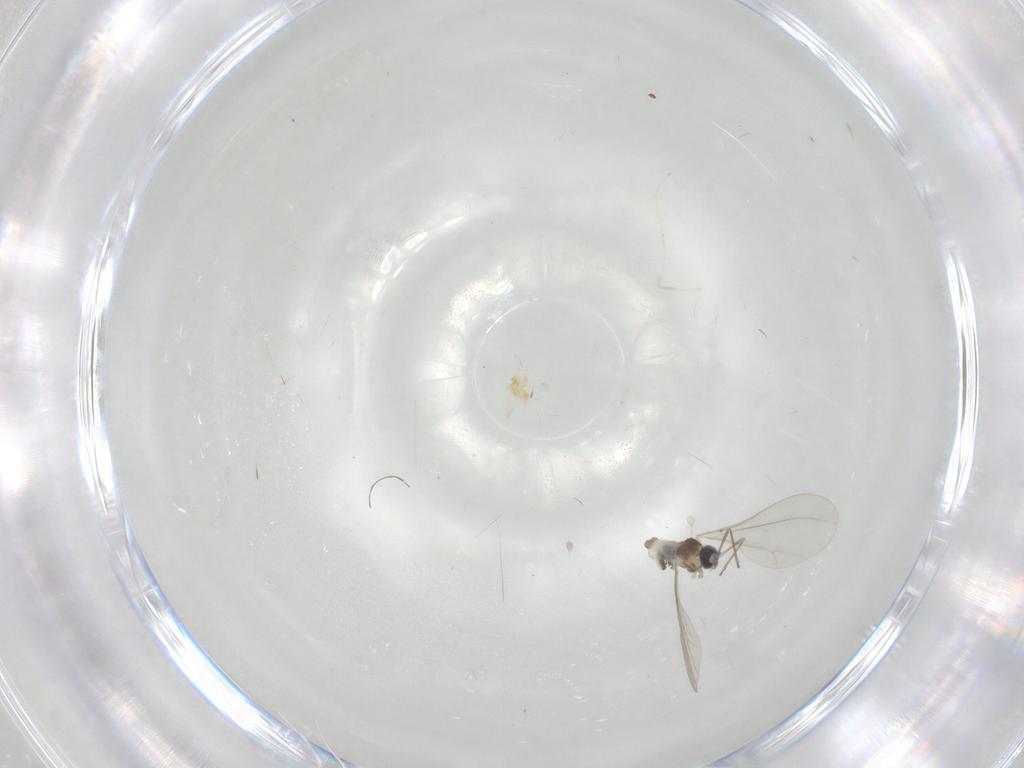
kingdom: Animalia
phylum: Arthropoda
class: Insecta
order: Diptera
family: Cecidomyiidae
